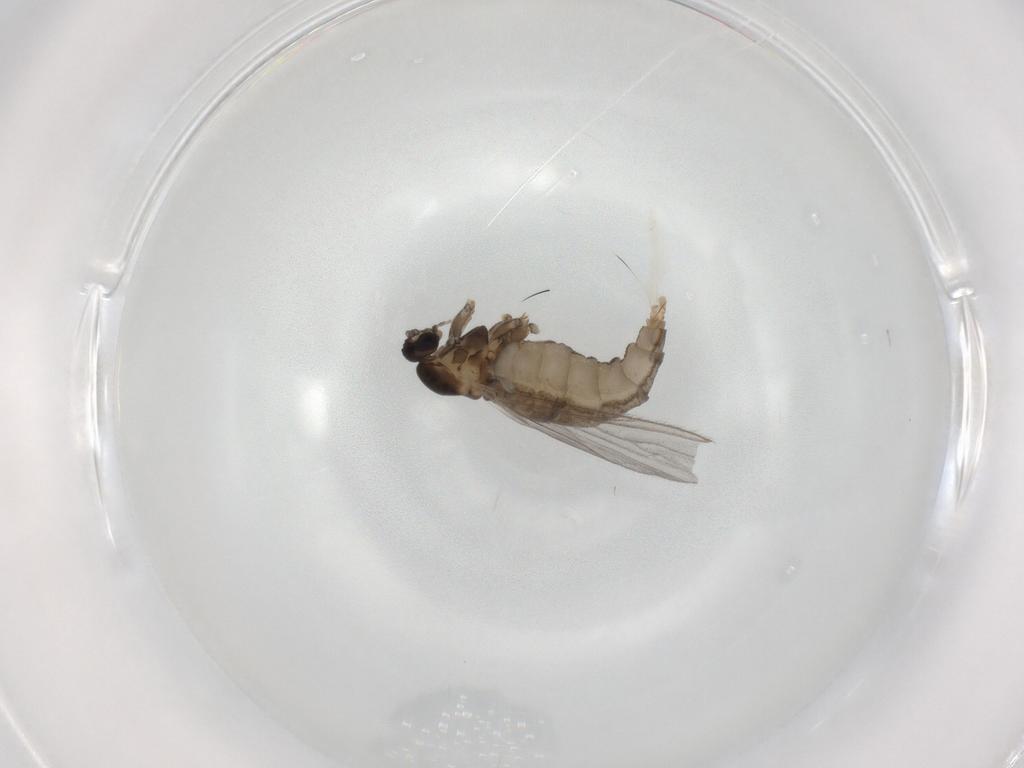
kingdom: Animalia
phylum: Arthropoda
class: Insecta
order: Diptera
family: Cecidomyiidae
